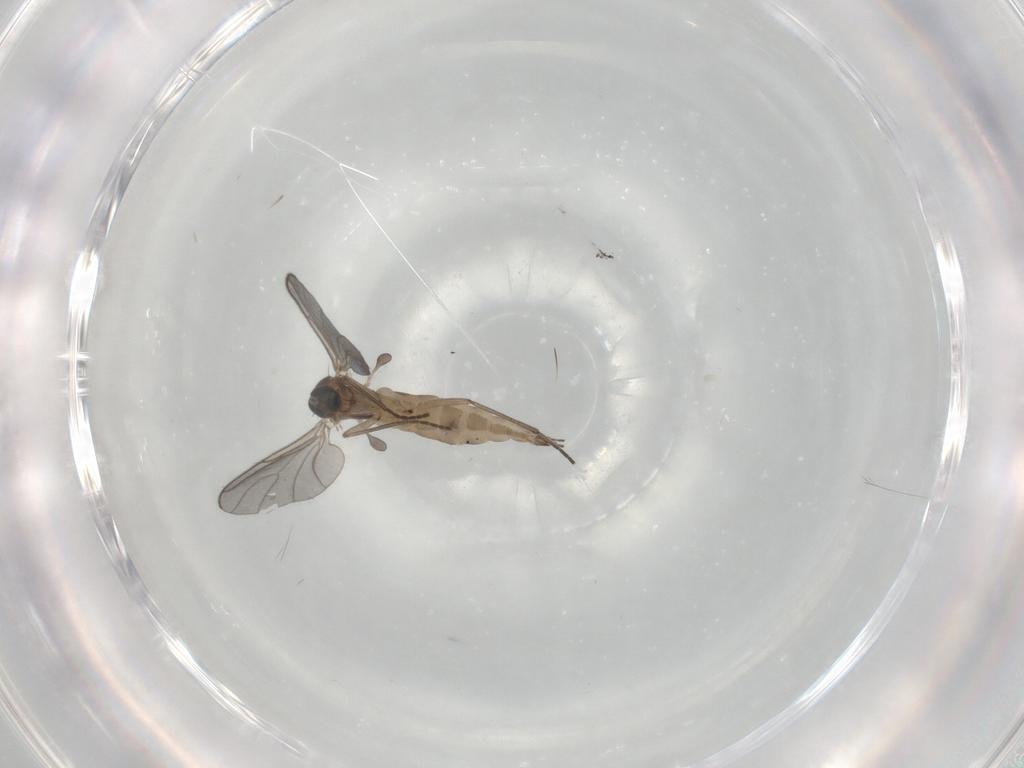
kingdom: Animalia
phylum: Arthropoda
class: Insecta
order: Diptera
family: Sciaridae
